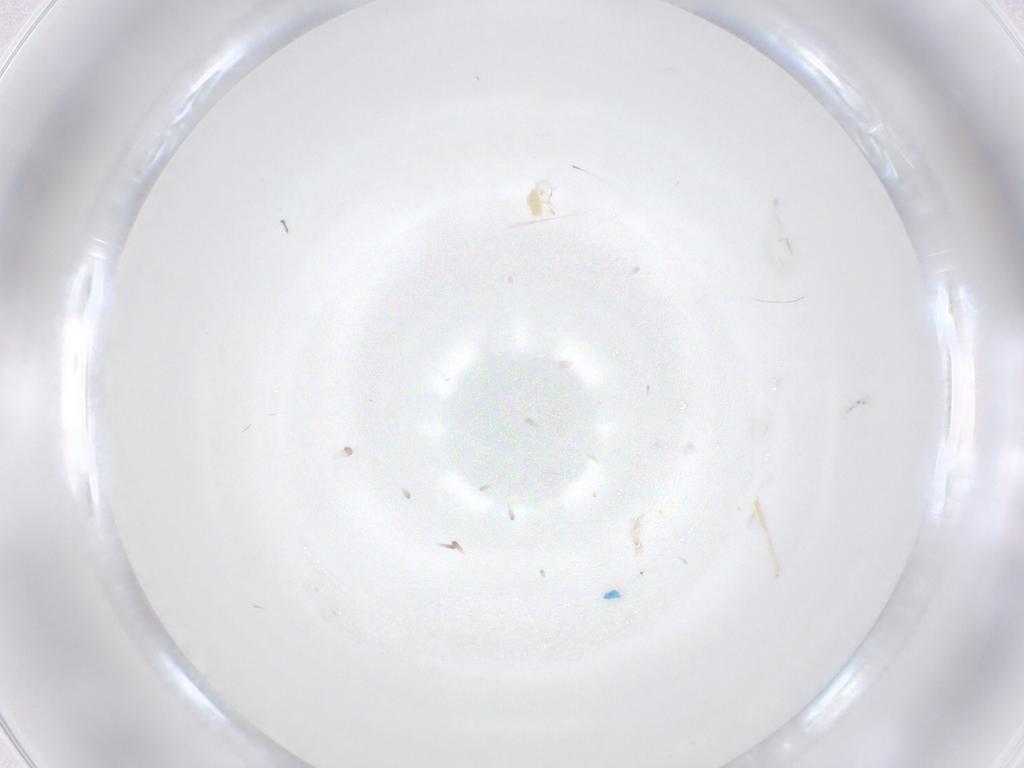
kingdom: Animalia
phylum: Arthropoda
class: Arachnida
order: Trombidiformes
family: Tetranychidae
